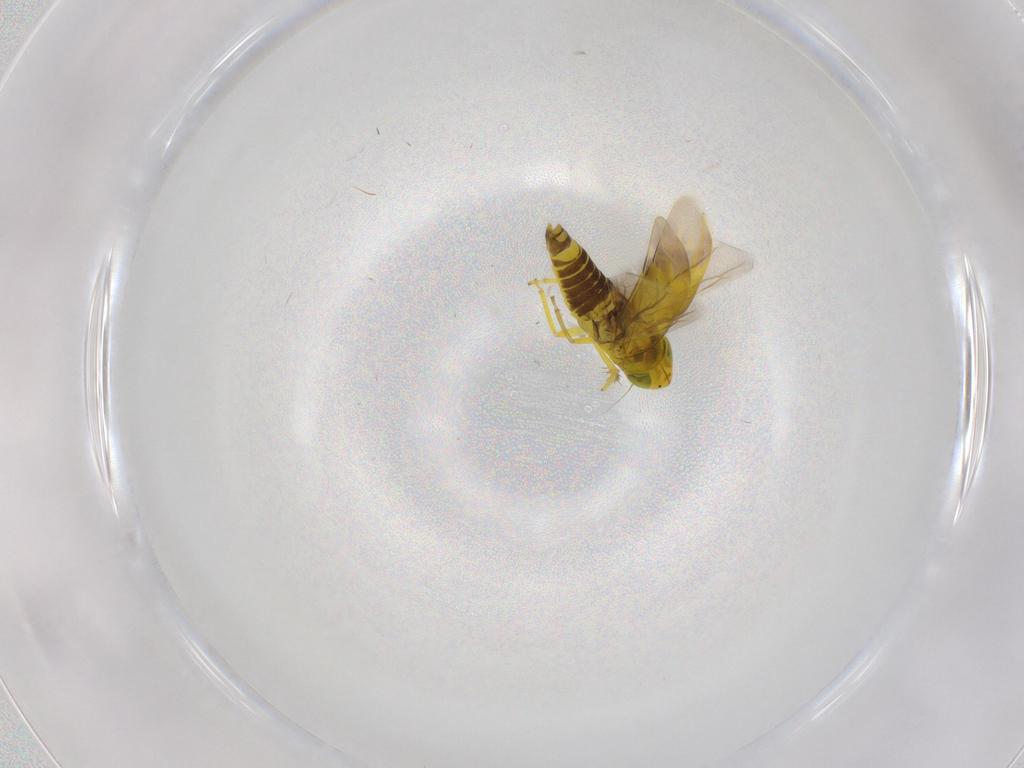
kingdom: Animalia
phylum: Arthropoda
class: Insecta
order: Hemiptera
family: Cicadellidae
